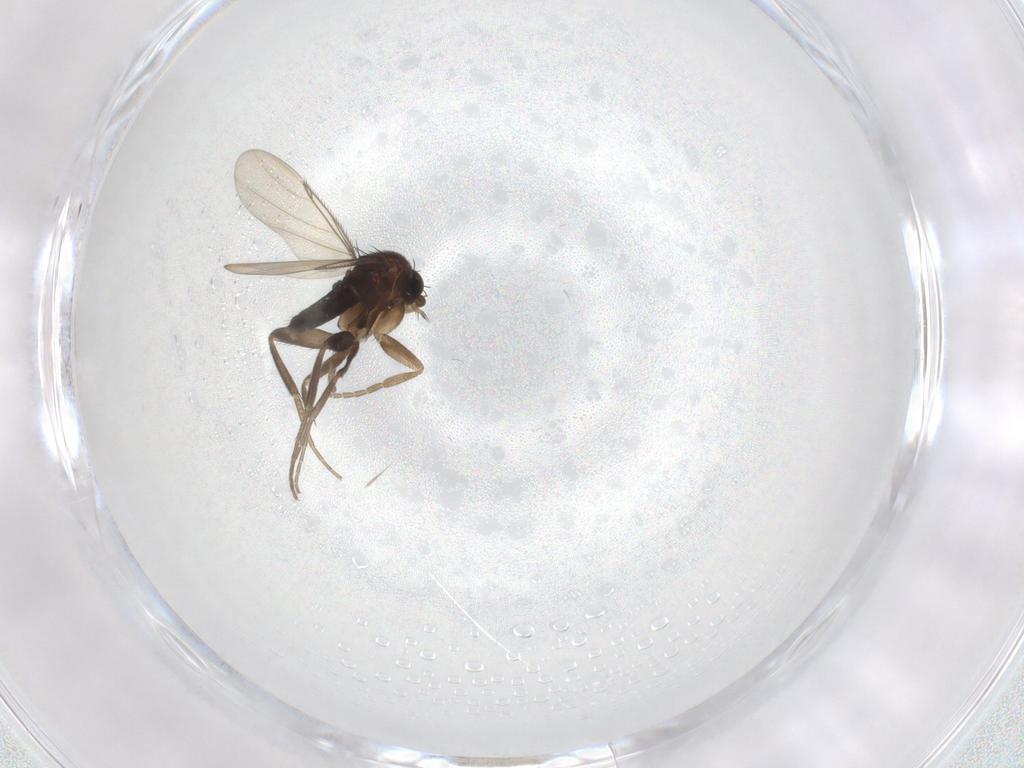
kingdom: Animalia
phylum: Arthropoda
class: Insecta
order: Diptera
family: Phoridae
